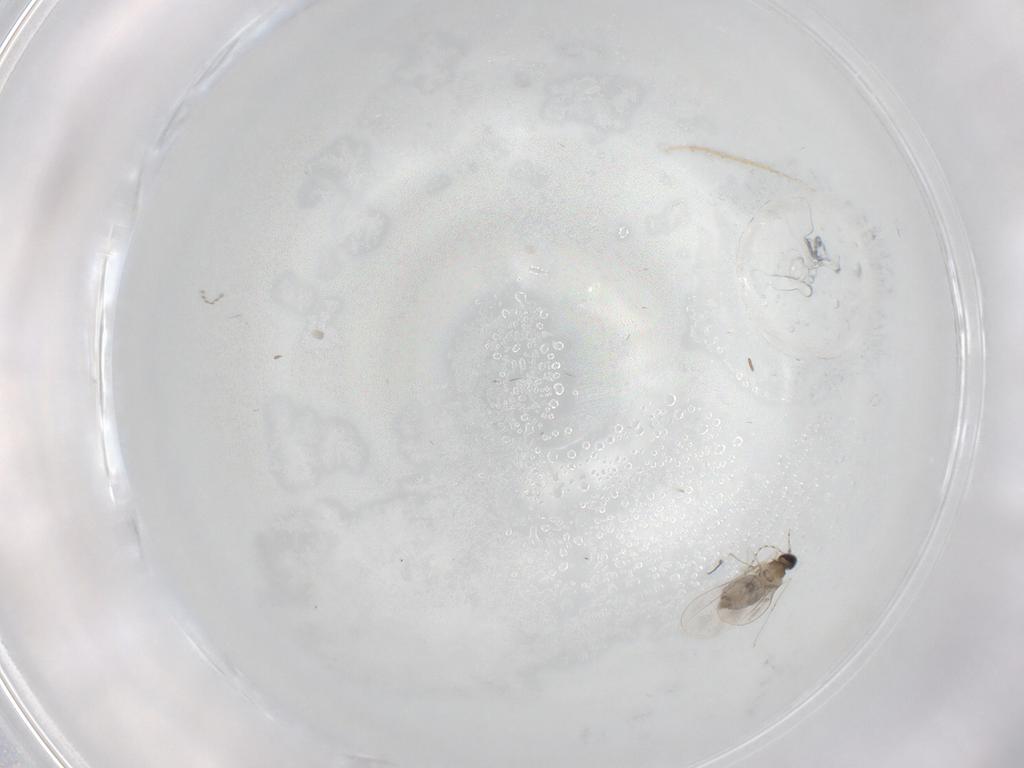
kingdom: Animalia
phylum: Arthropoda
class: Insecta
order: Diptera
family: Cecidomyiidae
